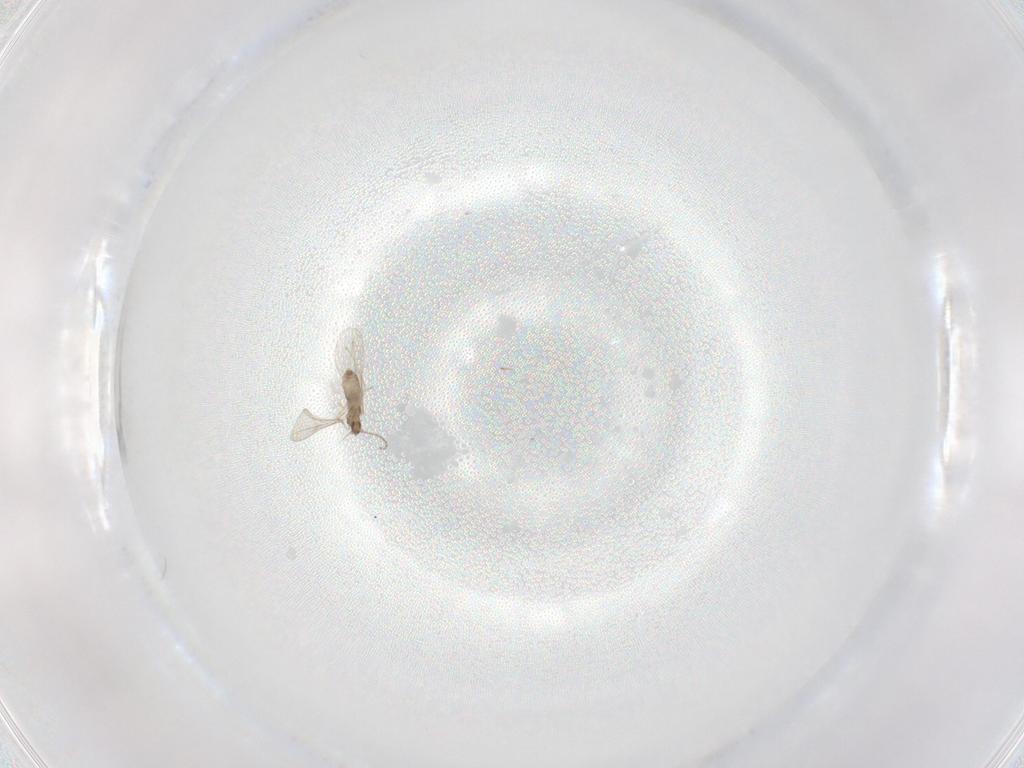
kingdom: Animalia
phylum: Arthropoda
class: Insecta
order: Diptera
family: Cecidomyiidae
